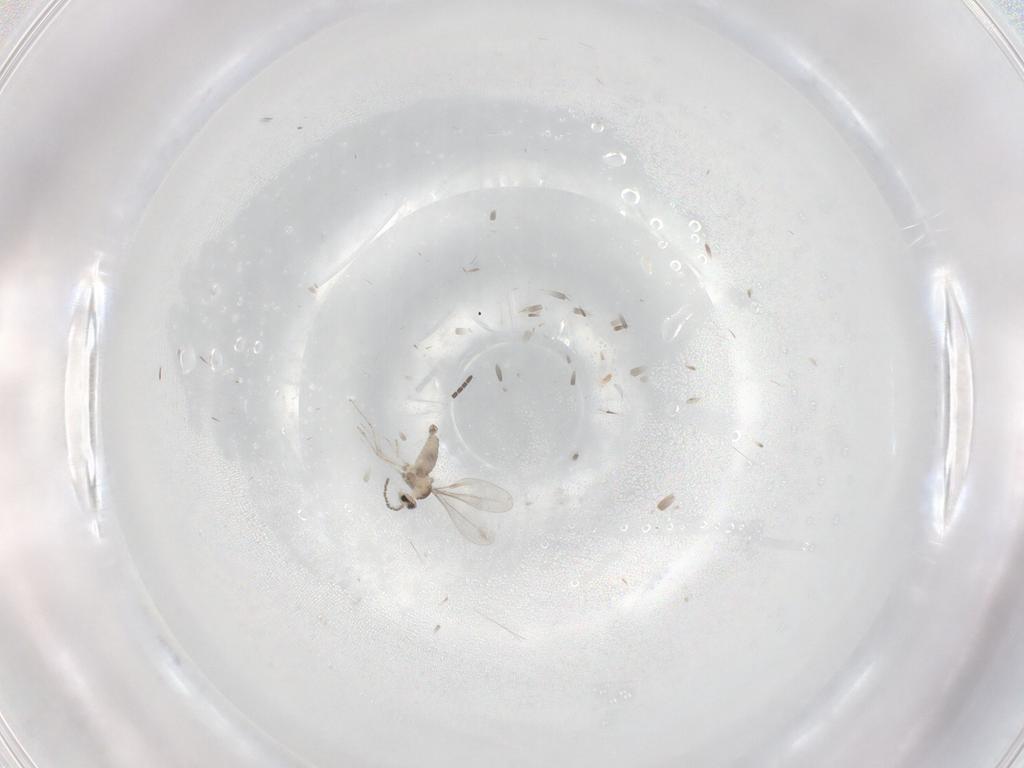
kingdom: Animalia
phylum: Arthropoda
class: Insecta
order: Diptera
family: Cecidomyiidae
